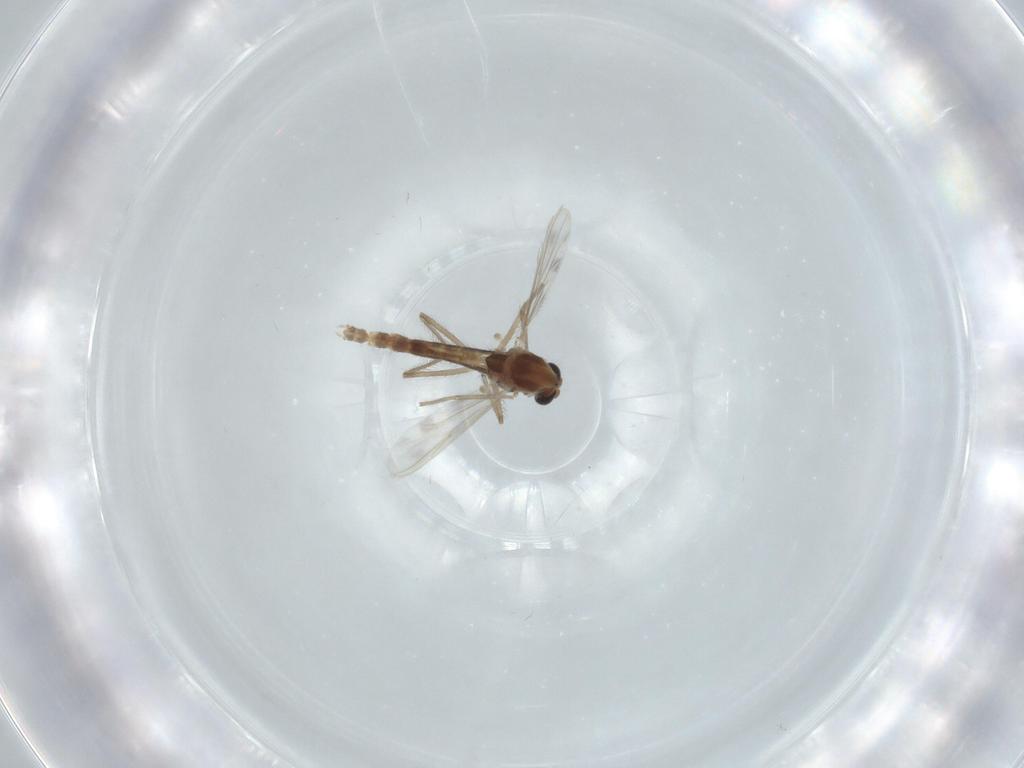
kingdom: Animalia
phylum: Arthropoda
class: Insecta
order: Diptera
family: Chironomidae
